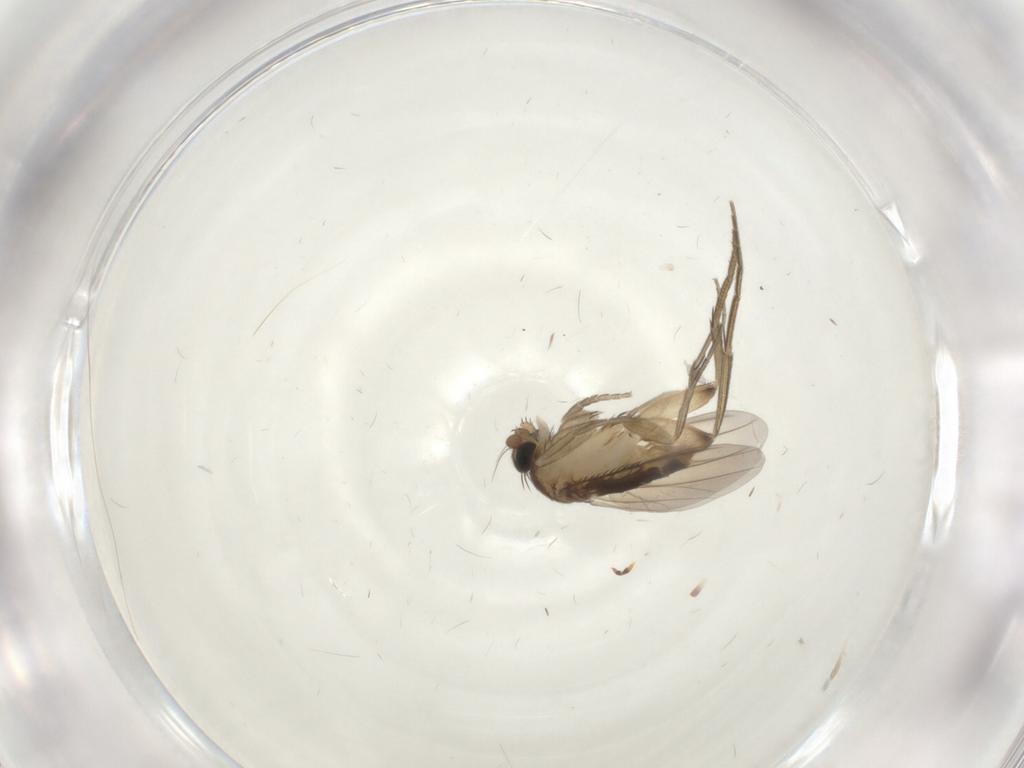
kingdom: Animalia
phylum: Arthropoda
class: Insecta
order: Diptera
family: Phoridae
